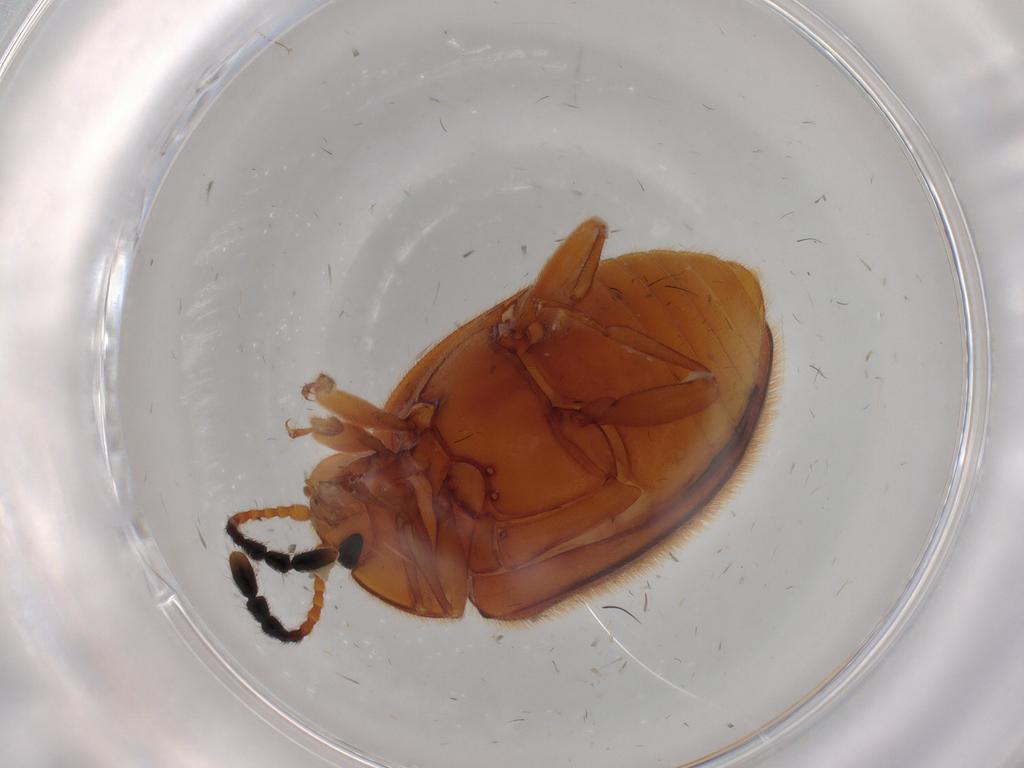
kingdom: Animalia
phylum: Arthropoda
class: Insecta
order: Coleoptera
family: Endomychidae
